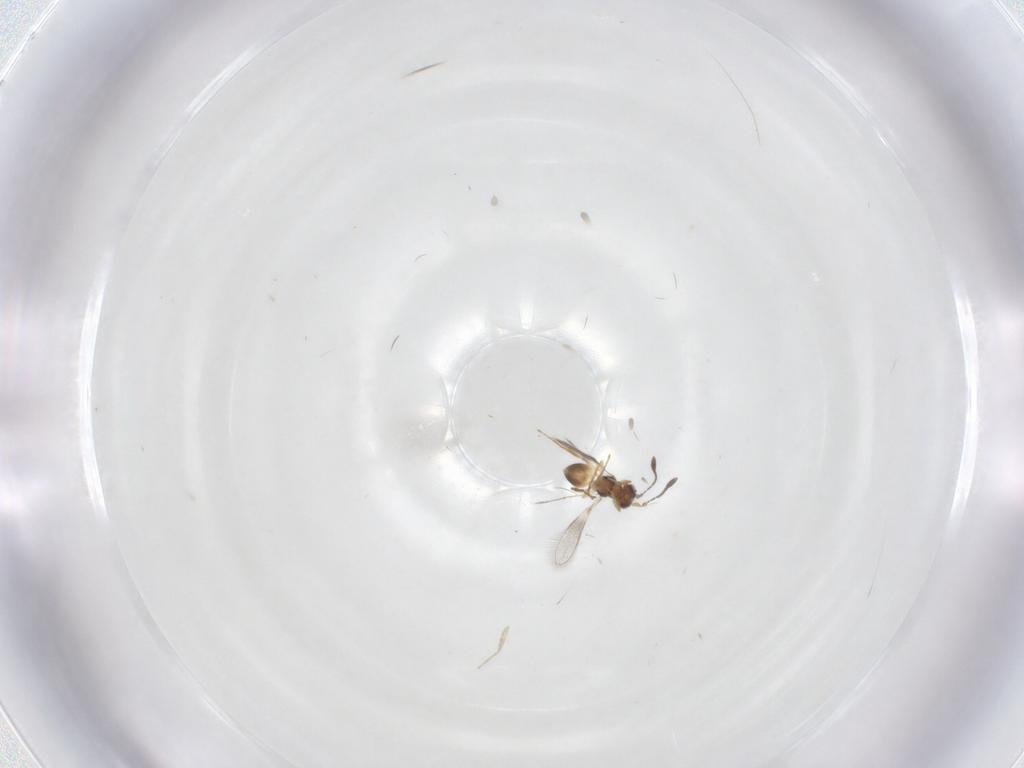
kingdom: Animalia
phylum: Arthropoda
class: Insecta
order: Hymenoptera
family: Mymaridae
